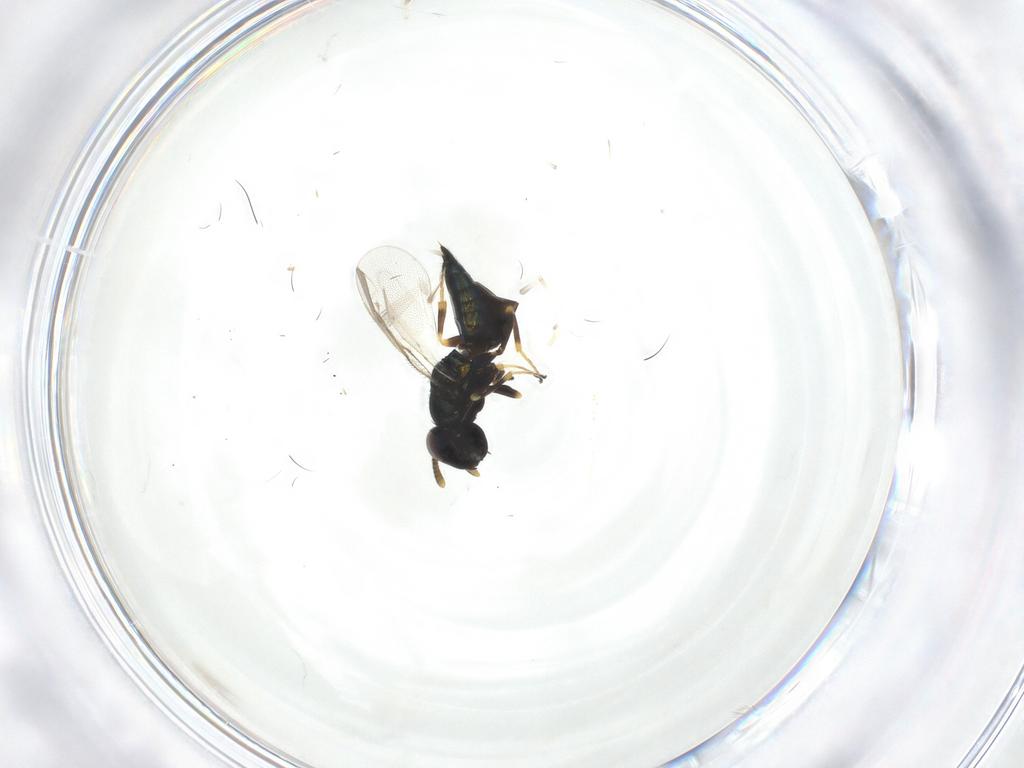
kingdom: Animalia
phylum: Arthropoda
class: Insecta
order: Hymenoptera
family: Pteromalidae
